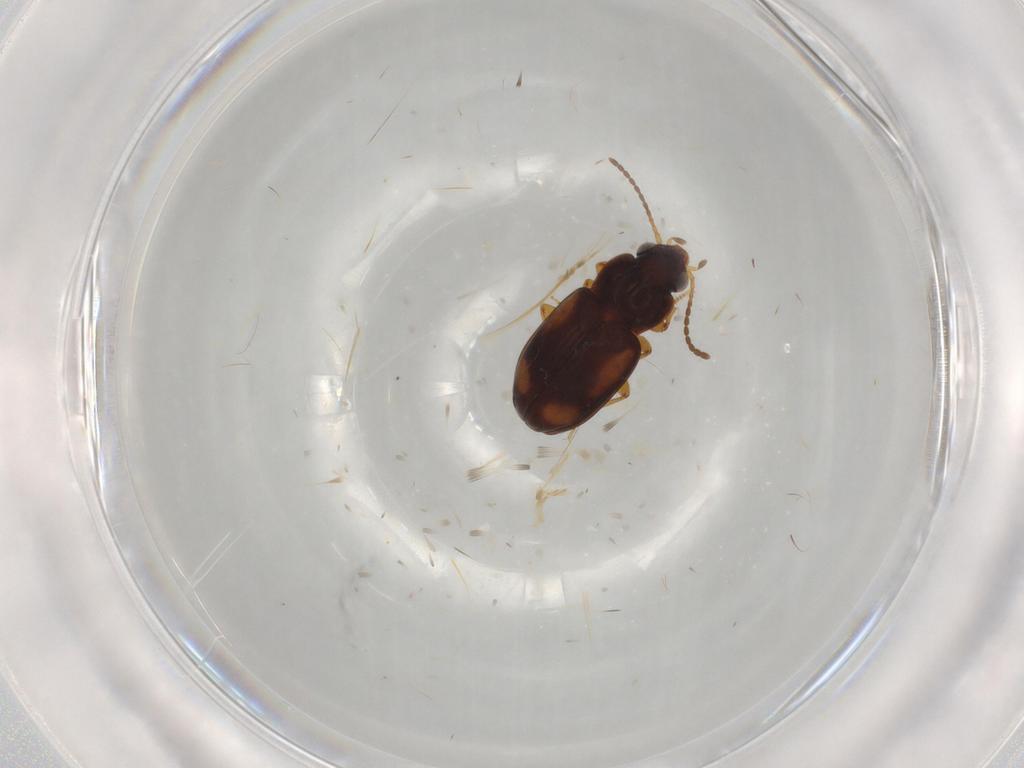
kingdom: Animalia
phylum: Arthropoda
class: Insecta
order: Coleoptera
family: Carabidae
